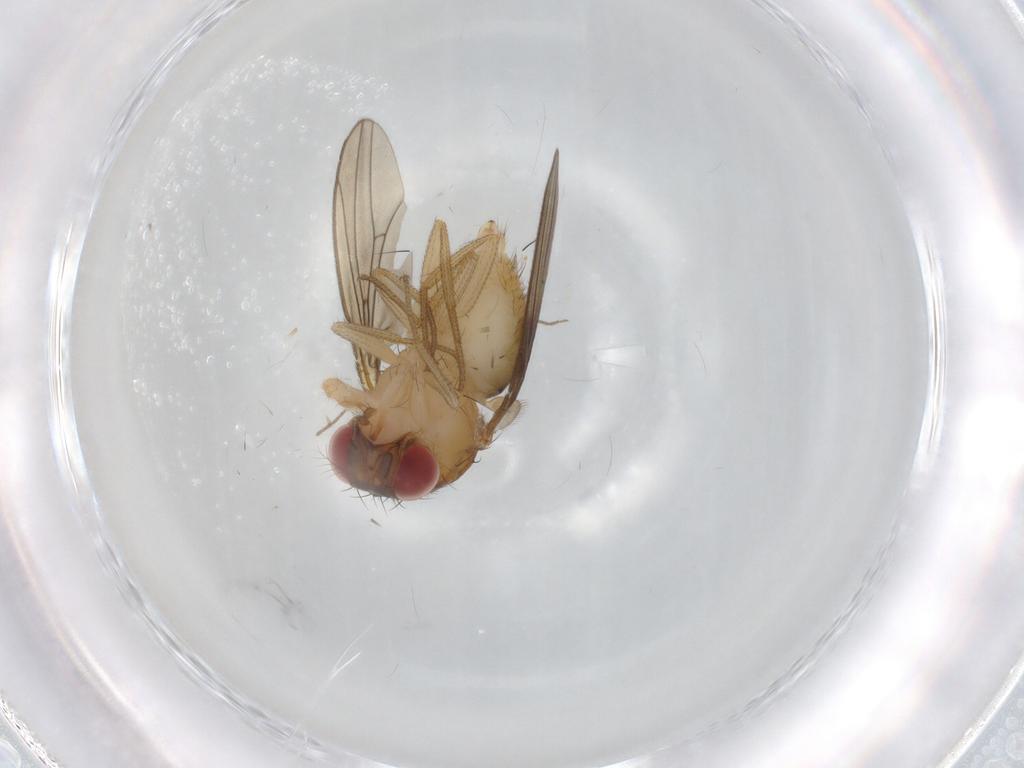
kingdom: Animalia
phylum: Arthropoda
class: Insecta
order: Diptera
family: Drosophilidae
